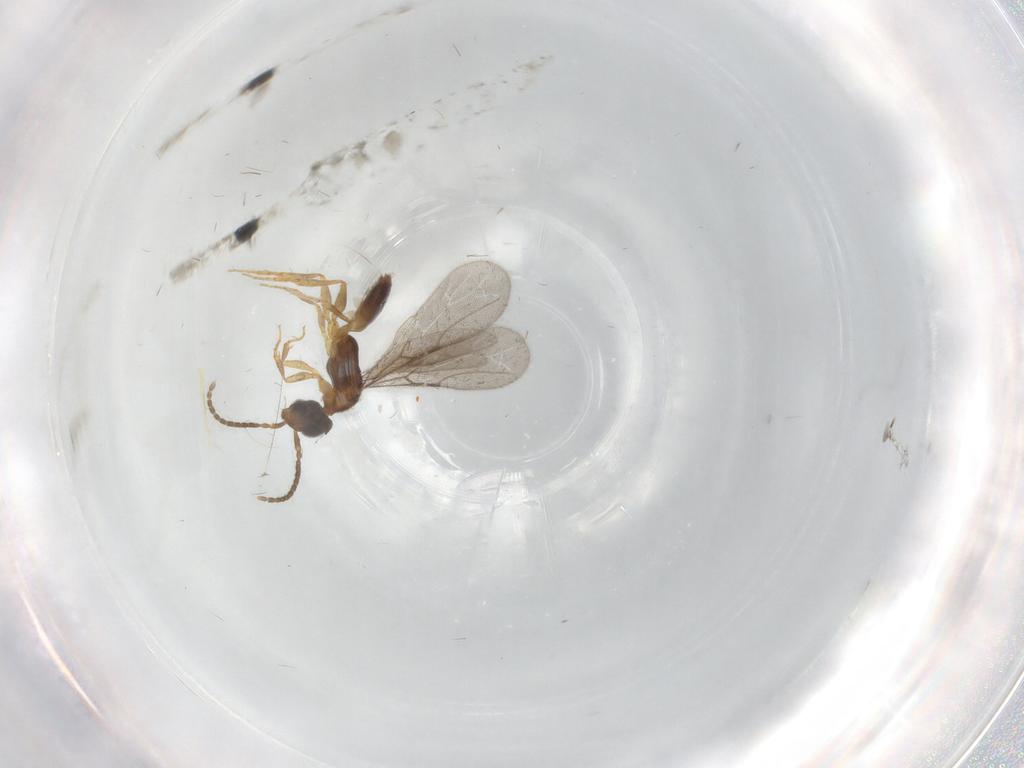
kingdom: Animalia
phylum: Arthropoda
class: Insecta
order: Hymenoptera
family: Bethylidae
